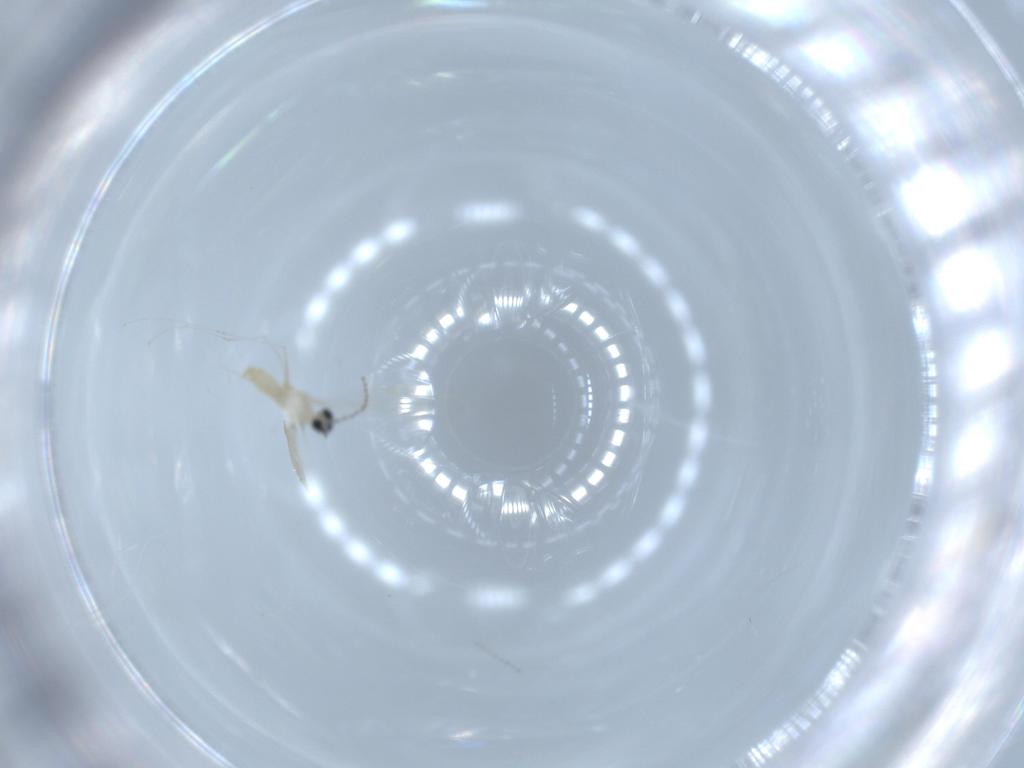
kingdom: Animalia
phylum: Arthropoda
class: Insecta
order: Diptera
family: Cecidomyiidae
